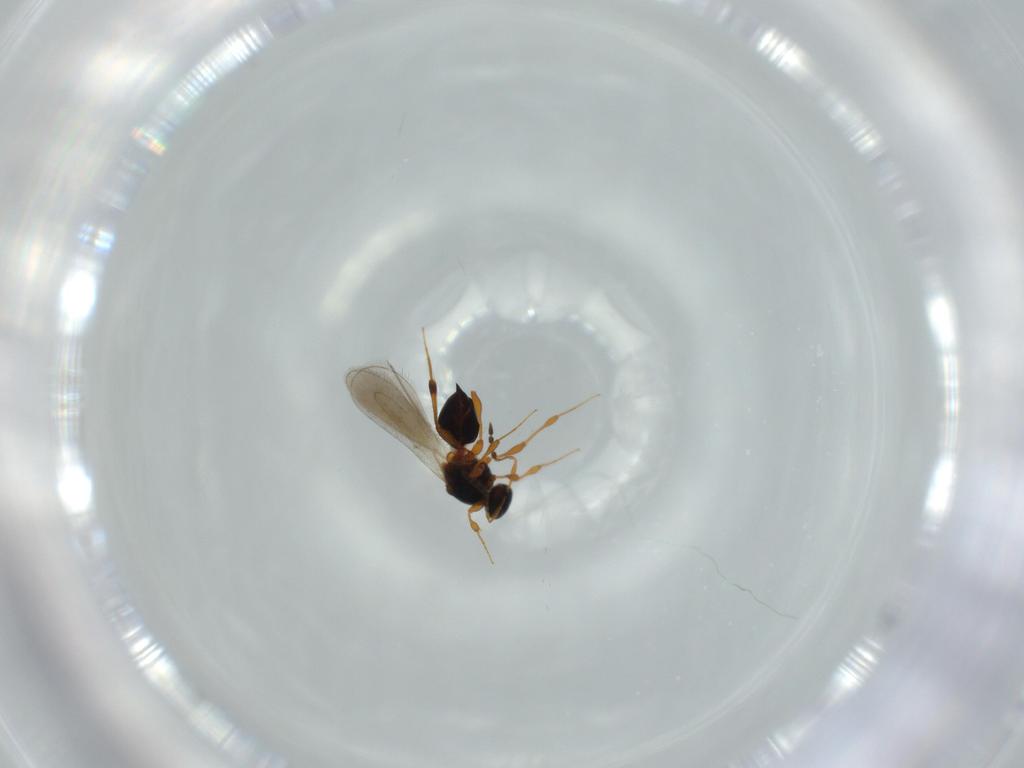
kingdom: Animalia
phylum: Arthropoda
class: Insecta
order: Hymenoptera
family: Platygastridae
